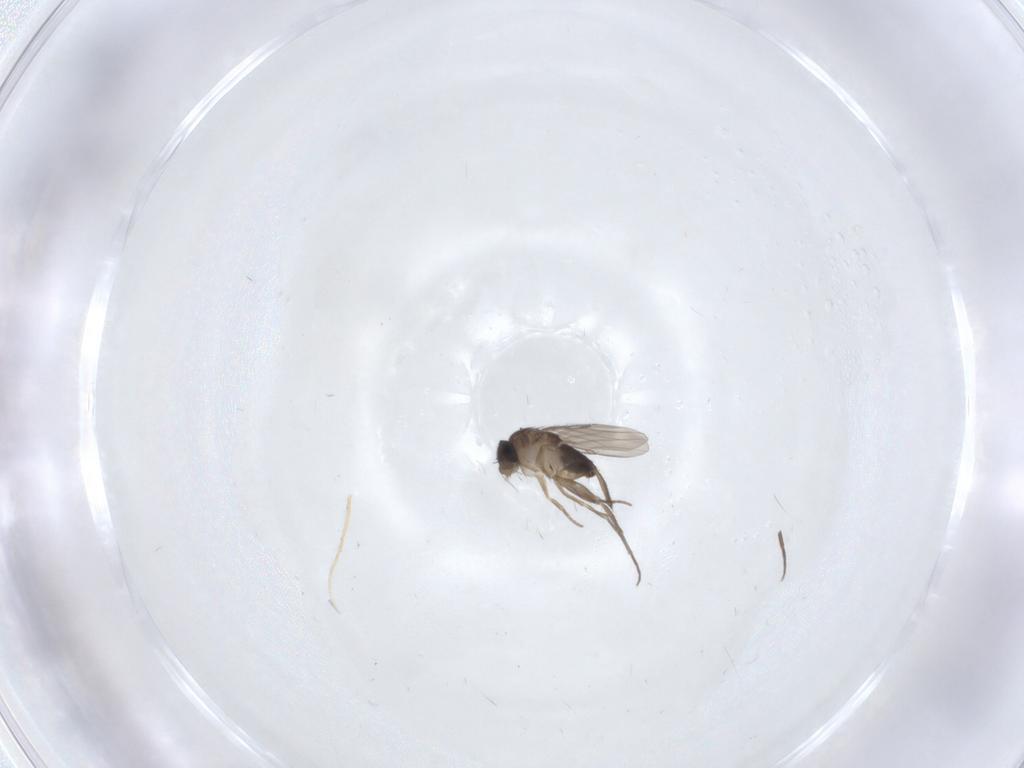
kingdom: Animalia
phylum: Arthropoda
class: Insecta
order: Diptera
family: Phoridae
